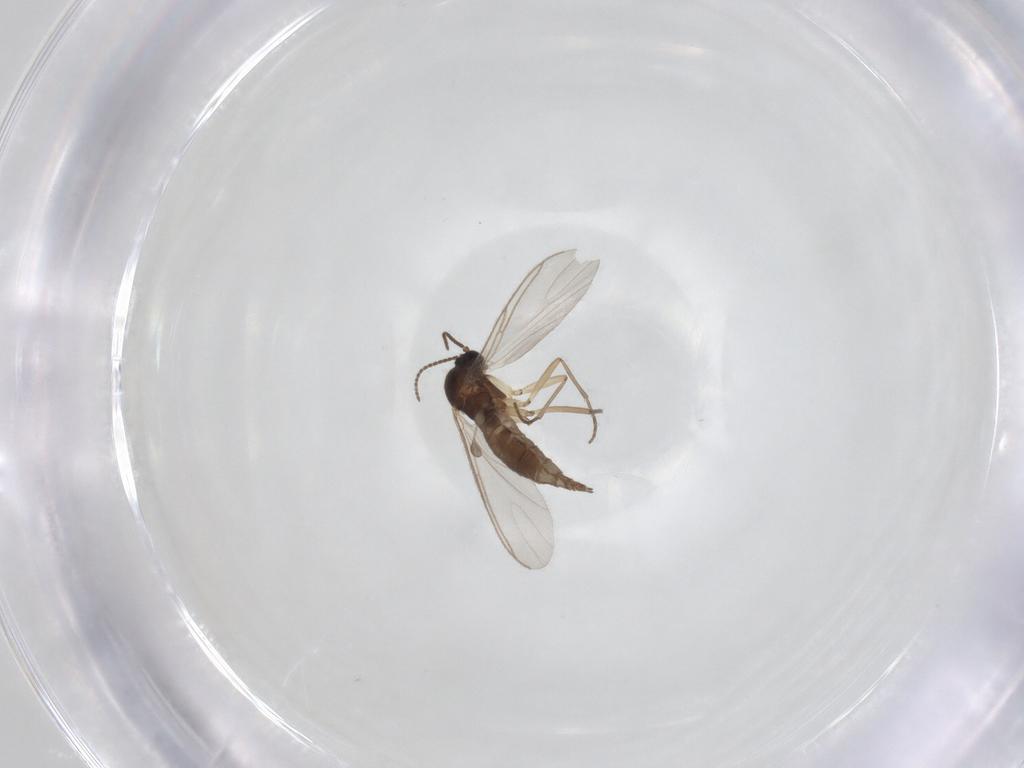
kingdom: Animalia
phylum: Arthropoda
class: Insecta
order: Diptera
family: Sciaridae
